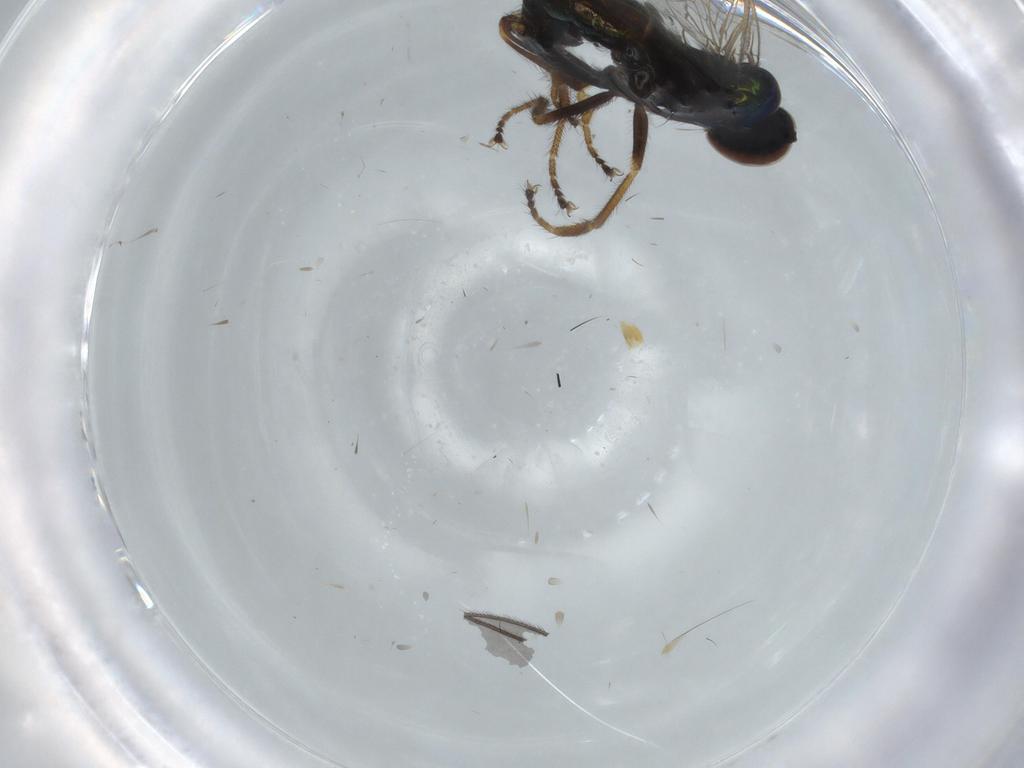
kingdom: Animalia
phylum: Arthropoda
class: Insecta
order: Diptera
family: Empididae
